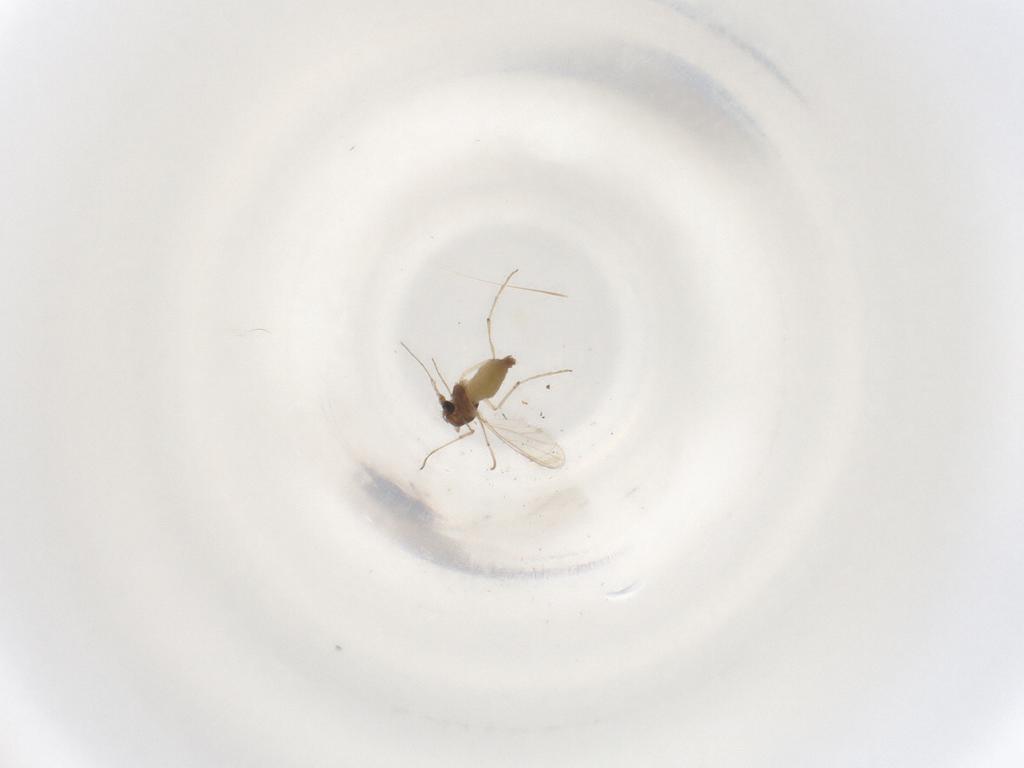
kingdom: Animalia
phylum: Arthropoda
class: Insecta
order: Diptera
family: Chironomidae
